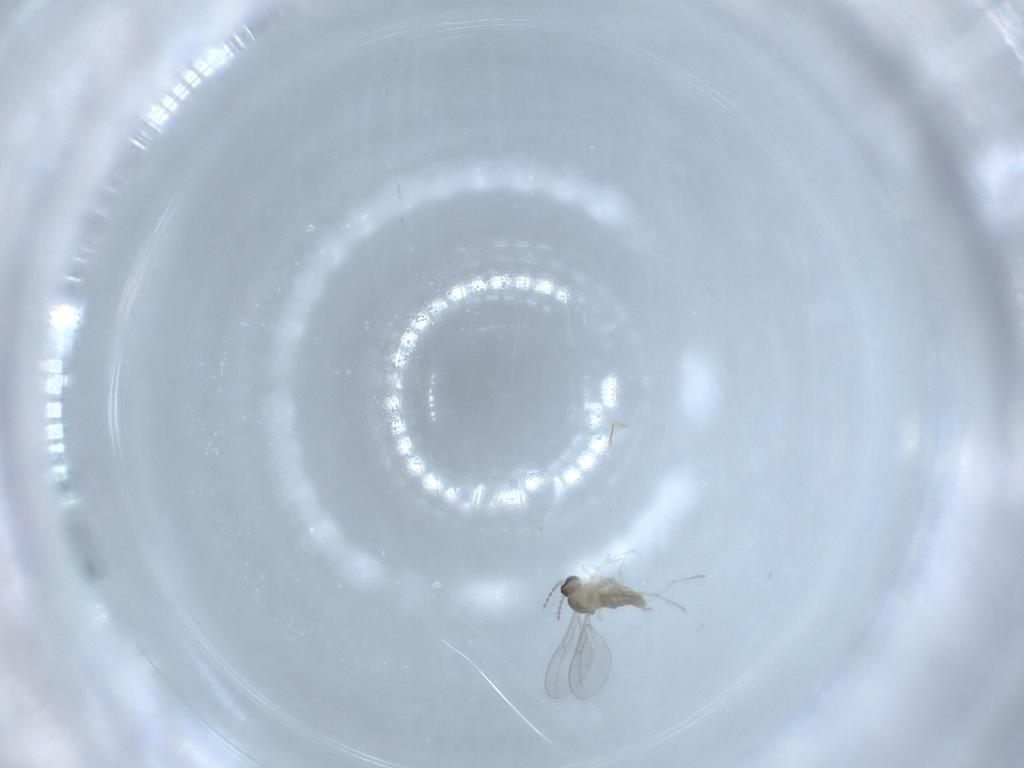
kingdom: Animalia
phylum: Arthropoda
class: Insecta
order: Diptera
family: Cecidomyiidae
